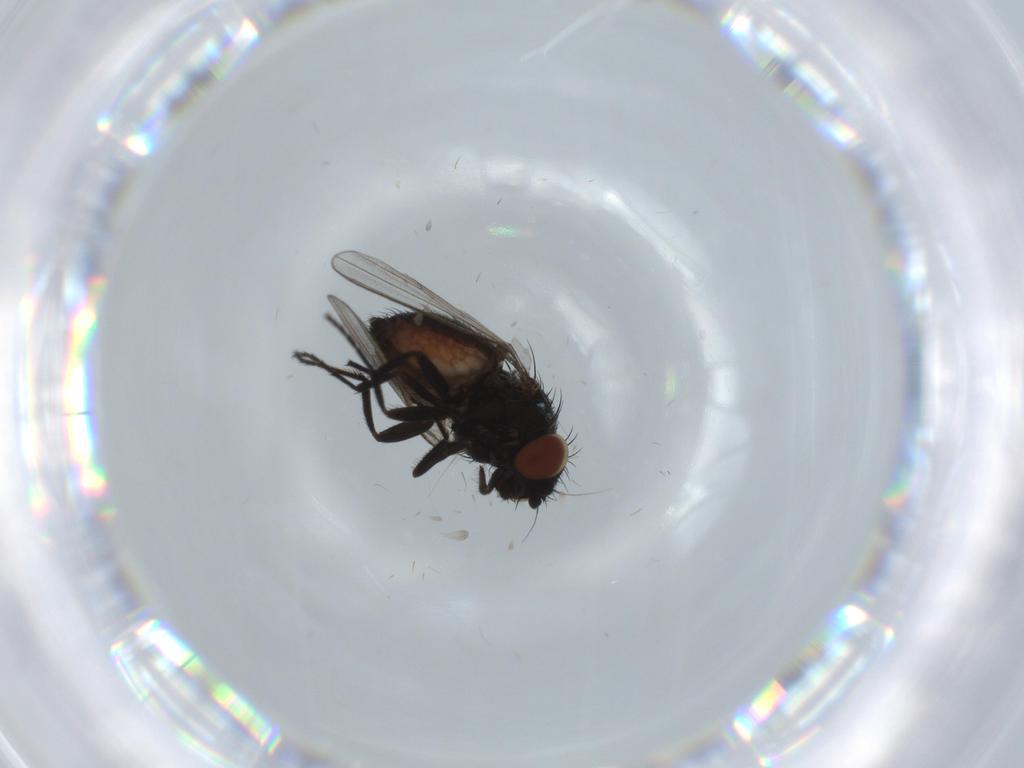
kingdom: Animalia
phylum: Arthropoda
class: Insecta
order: Diptera
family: Milichiidae
